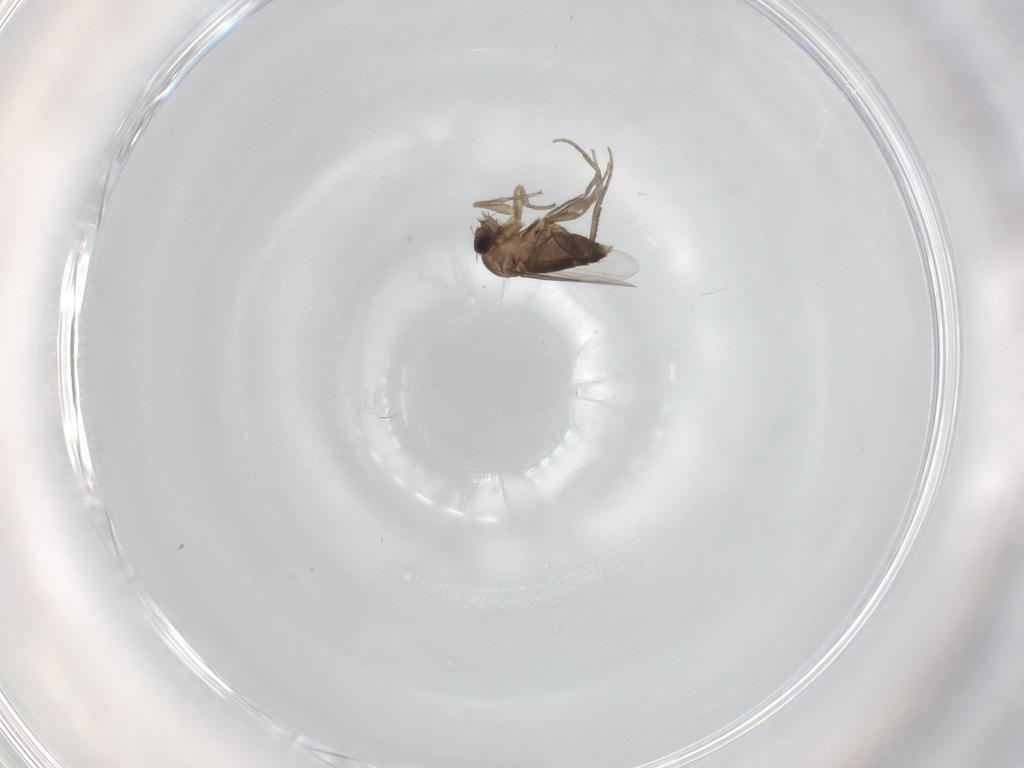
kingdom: Animalia
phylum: Arthropoda
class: Insecta
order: Diptera
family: Phoridae
